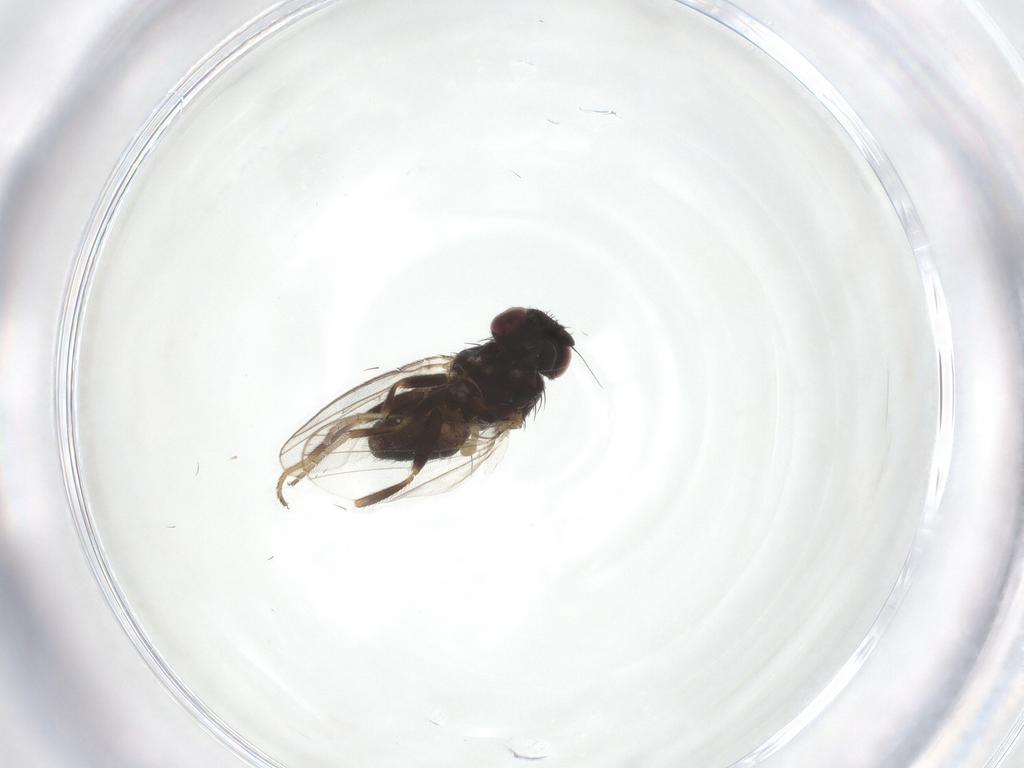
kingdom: Animalia
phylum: Arthropoda
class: Insecta
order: Diptera
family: Milichiidae
